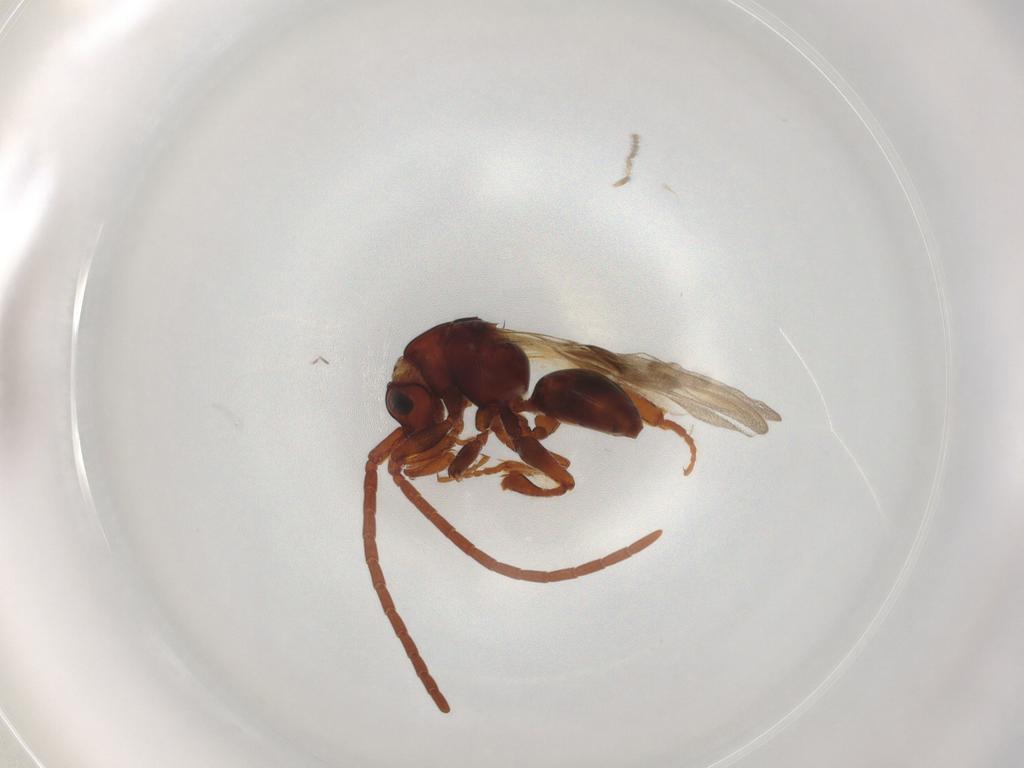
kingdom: Animalia
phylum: Arthropoda
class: Insecta
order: Hymenoptera
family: Chrysididae
